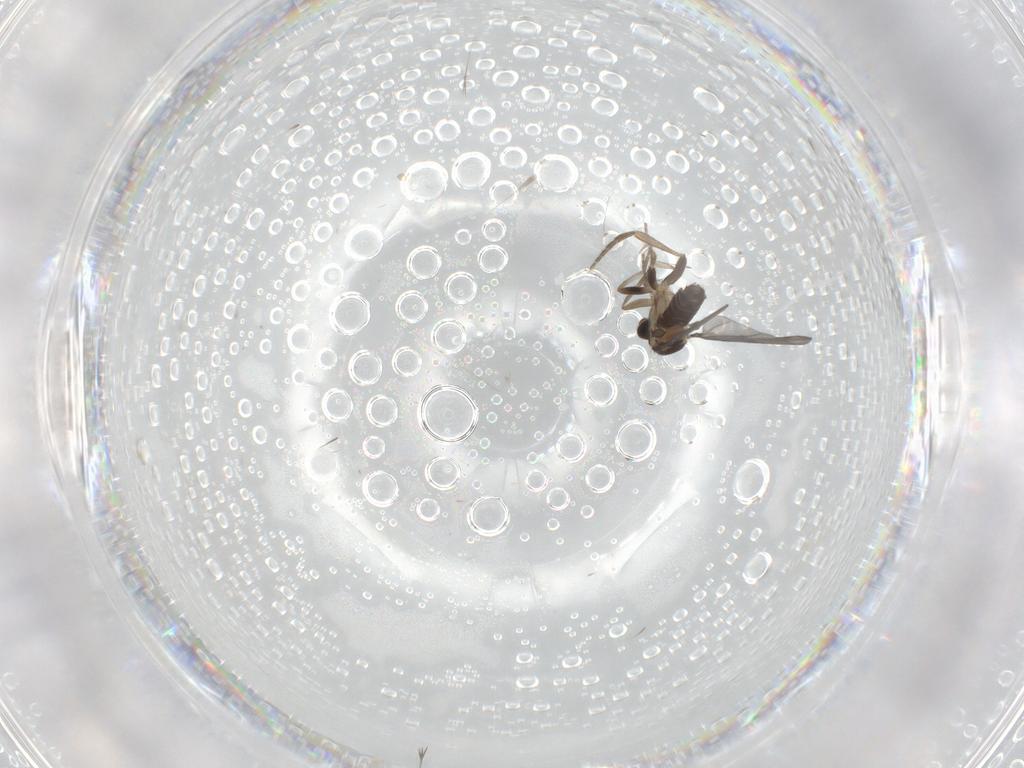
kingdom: Animalia
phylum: Arthropoda
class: Insecta
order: Diptera
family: Phoridae
